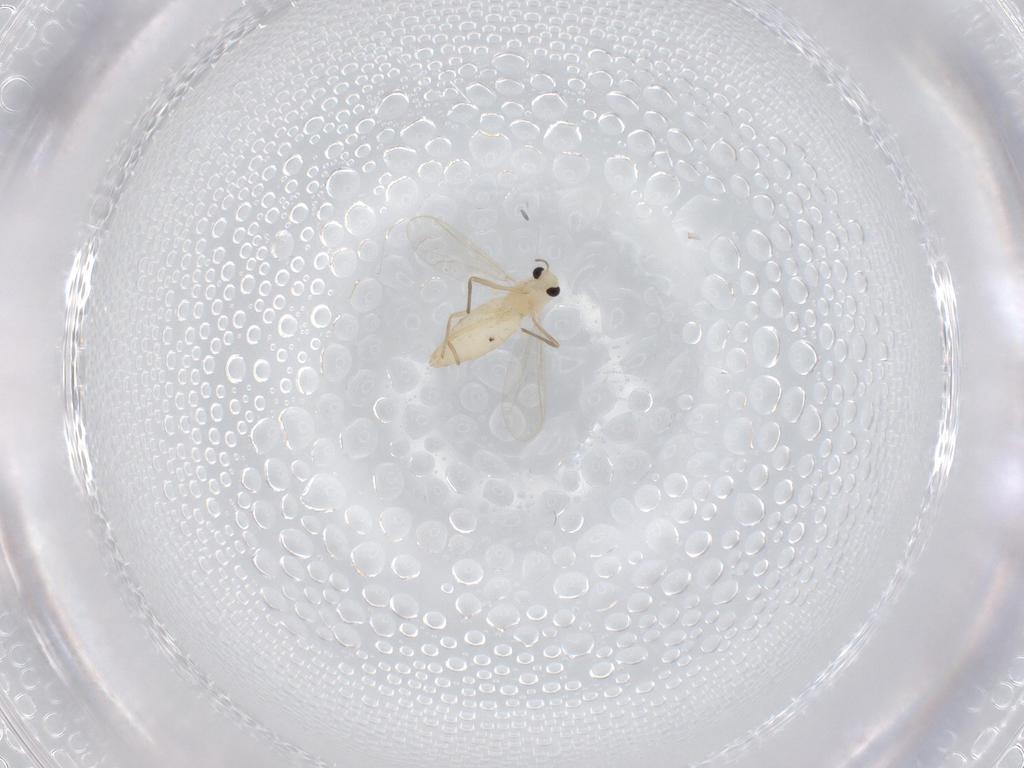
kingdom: Animalia
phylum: Arthropoda
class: Insecta
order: Diptera
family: Chironomidae
